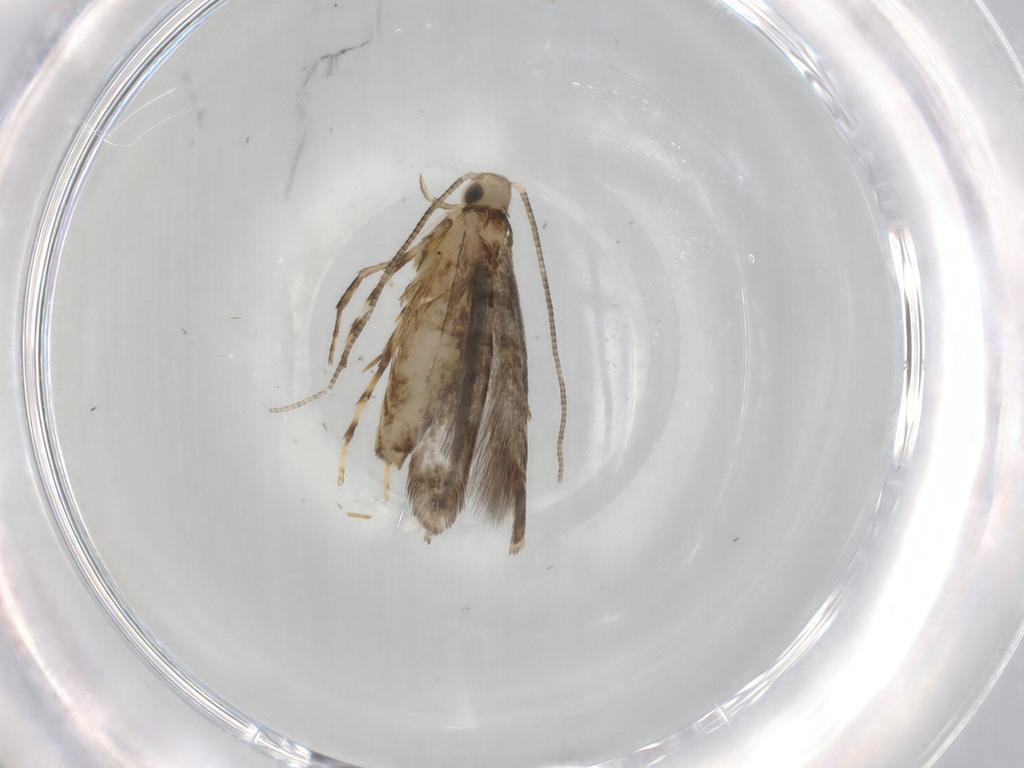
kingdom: Animalia
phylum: Arthropoda
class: Insecta
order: Lepidoptera
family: Gracillariidae
